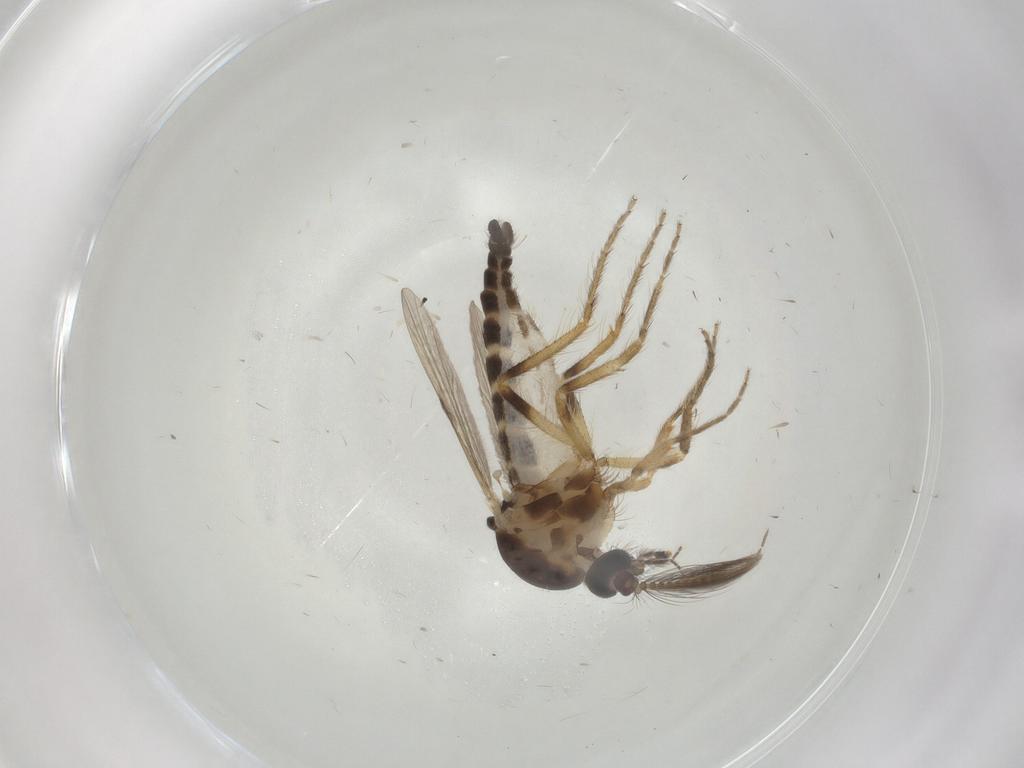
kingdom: Animalia
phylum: Arthropoda
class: Insecta
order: Diptera
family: Ceratopogonidae
